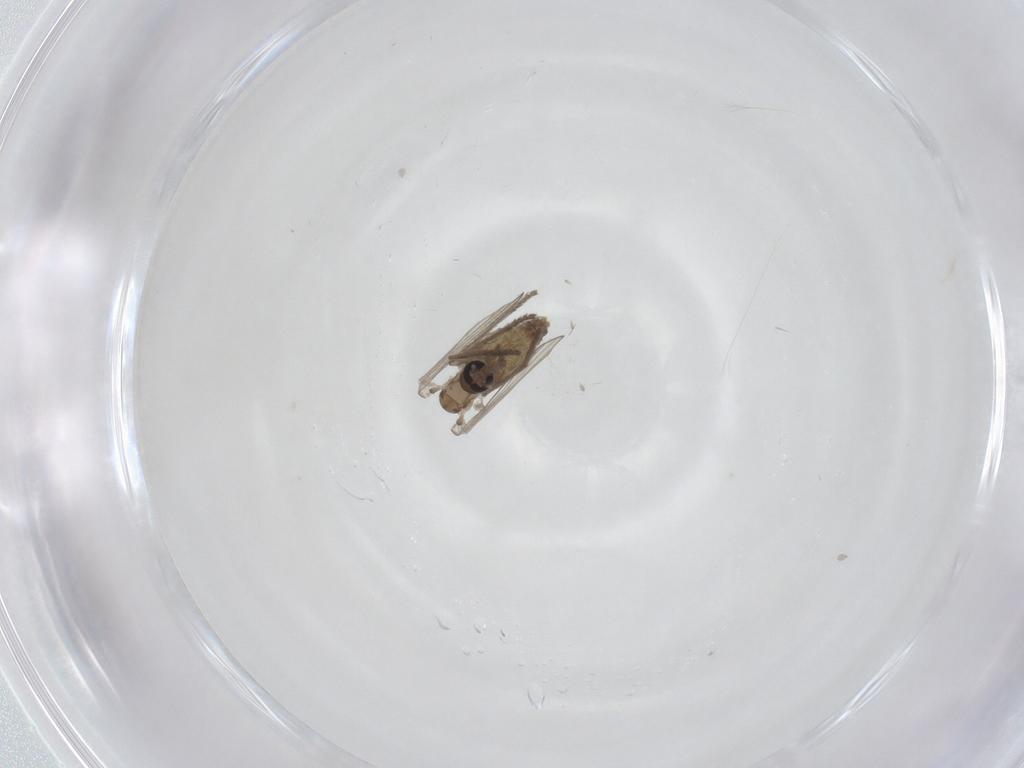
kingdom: Animalia
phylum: Arthropoda
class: Insecta
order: Diptera
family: Psychodidae
